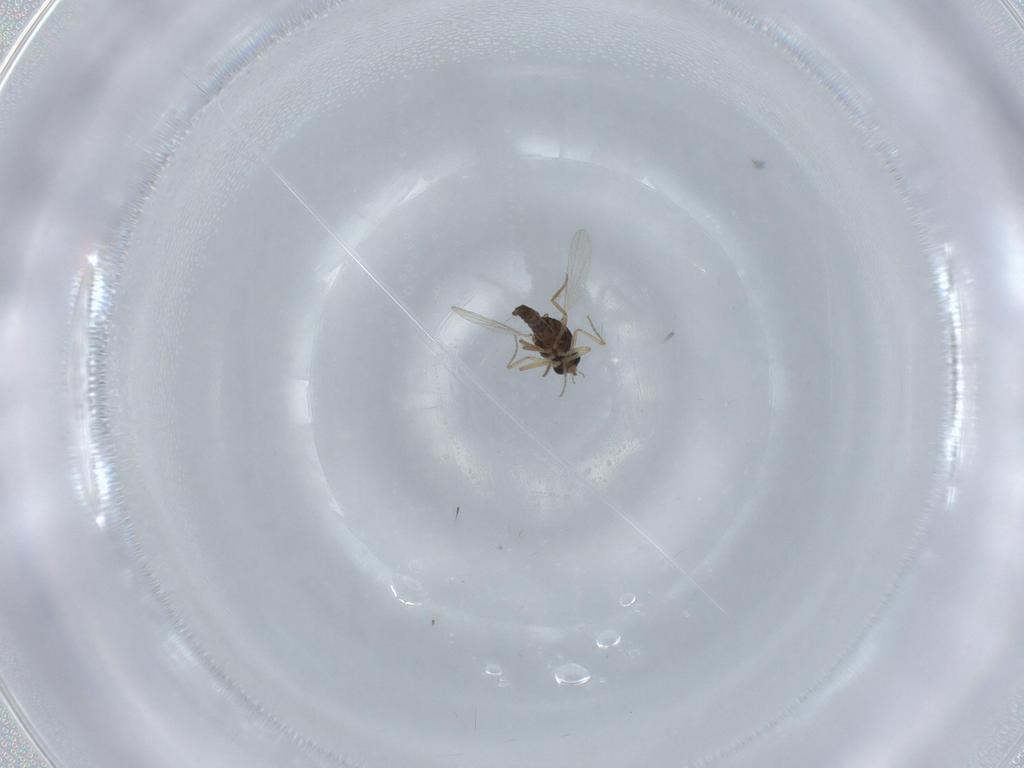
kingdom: Animalia
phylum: Arthropoda
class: Insecta
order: Diptera
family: Ceratopogonidae
